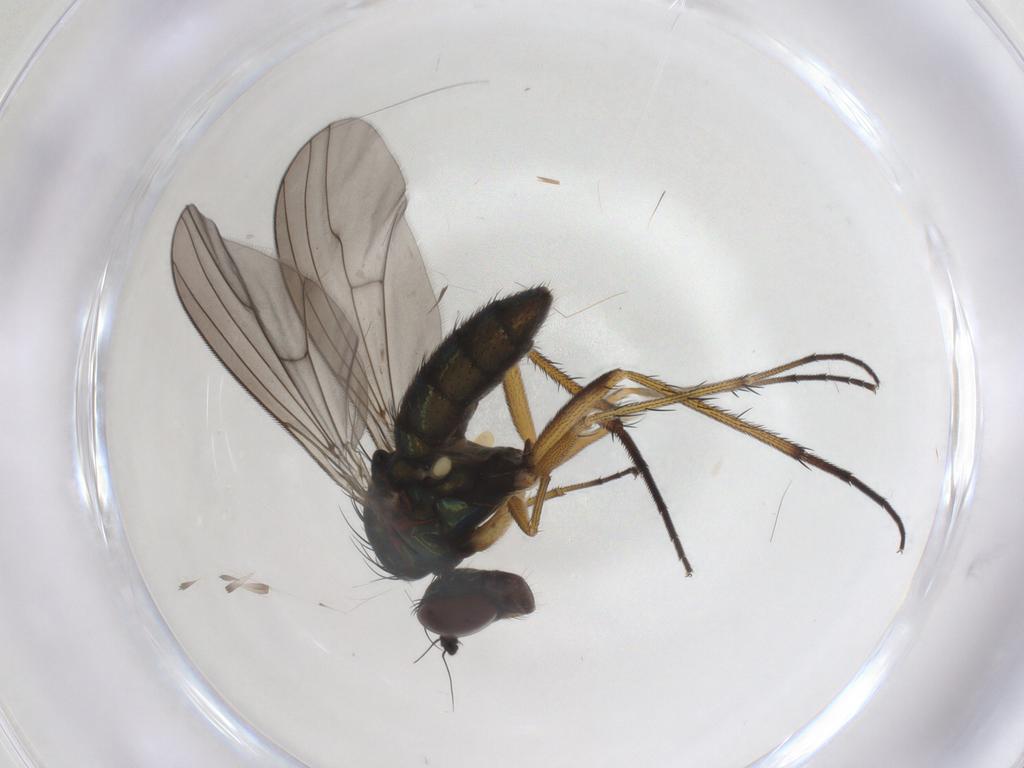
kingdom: Animalia
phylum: Arthropoda
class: Insecta
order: Diptera
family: Dolichopodidae
